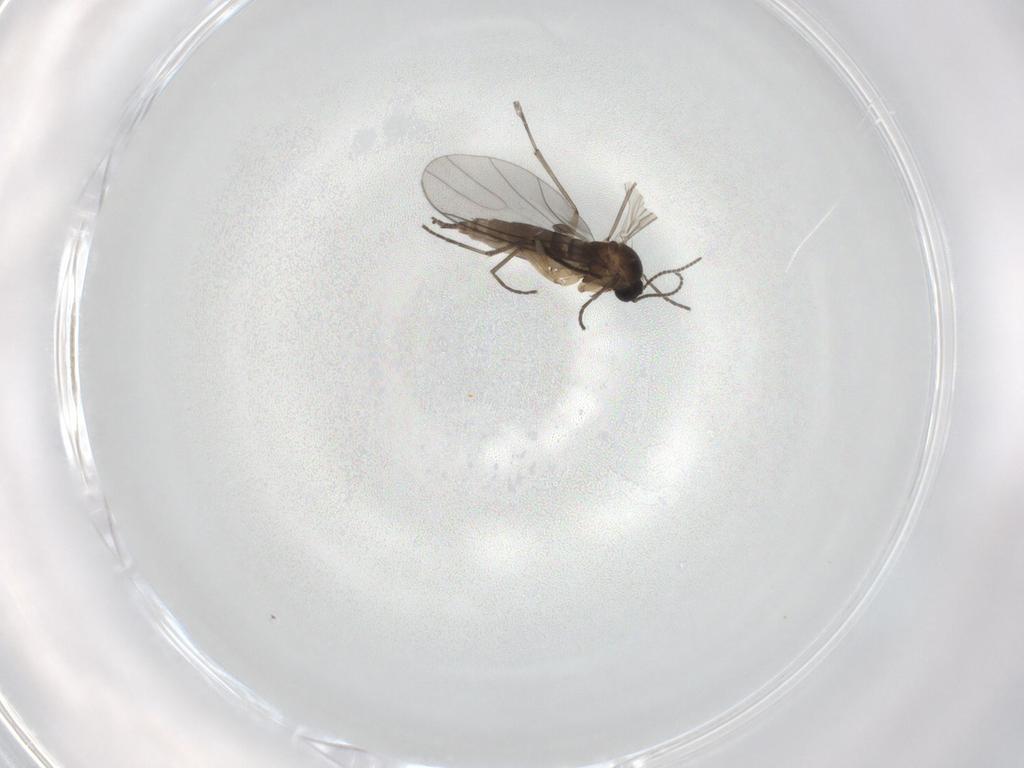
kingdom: Animalia
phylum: Arthropoda
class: Insecta
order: Diptera
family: Sciaridae
